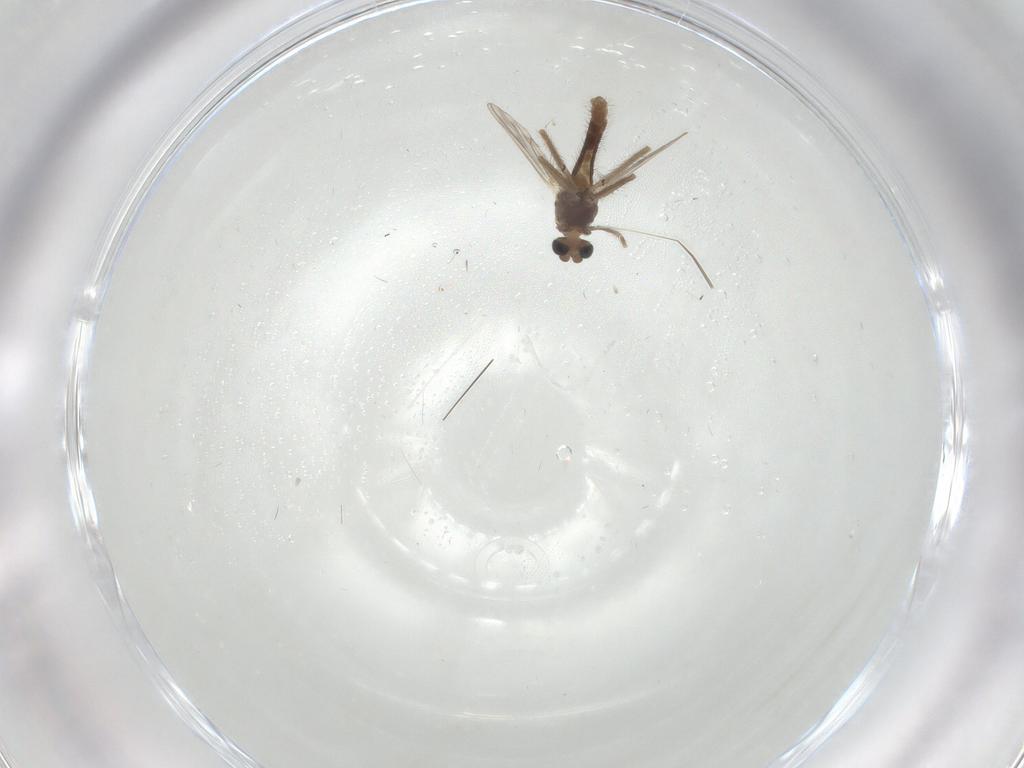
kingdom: Animalia
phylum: Arthropoda
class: Insecta
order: Diptera
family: Chironomidae
